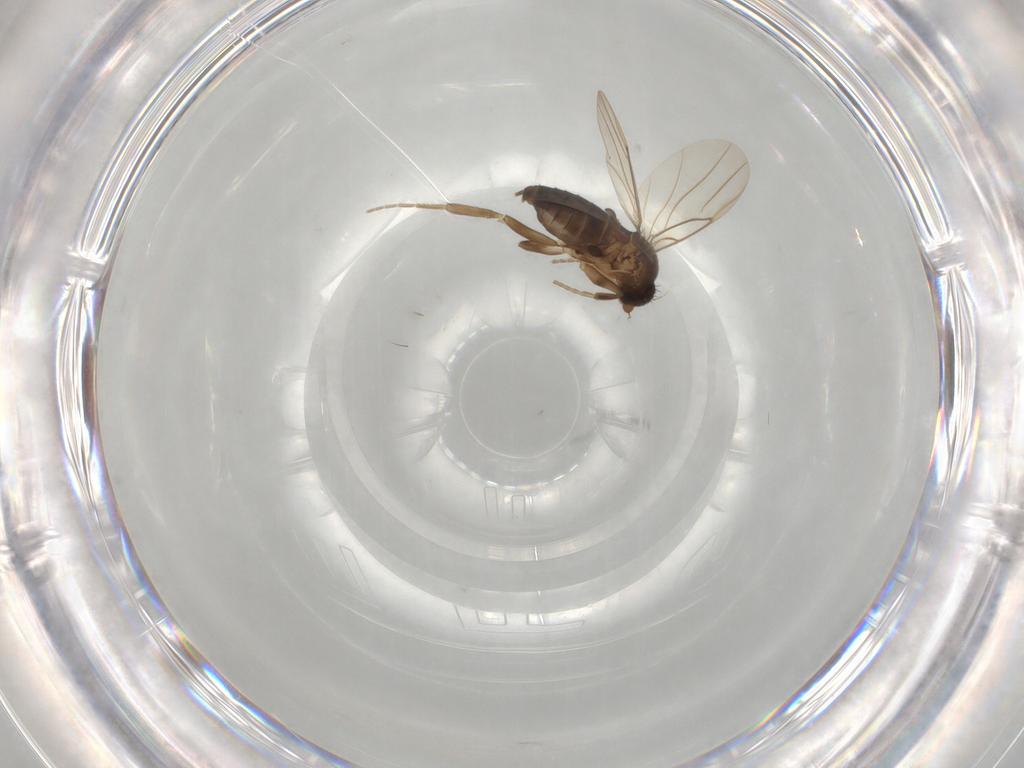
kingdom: Animalia
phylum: Arthropoda
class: Insecta
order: Diptera
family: Phoridae
